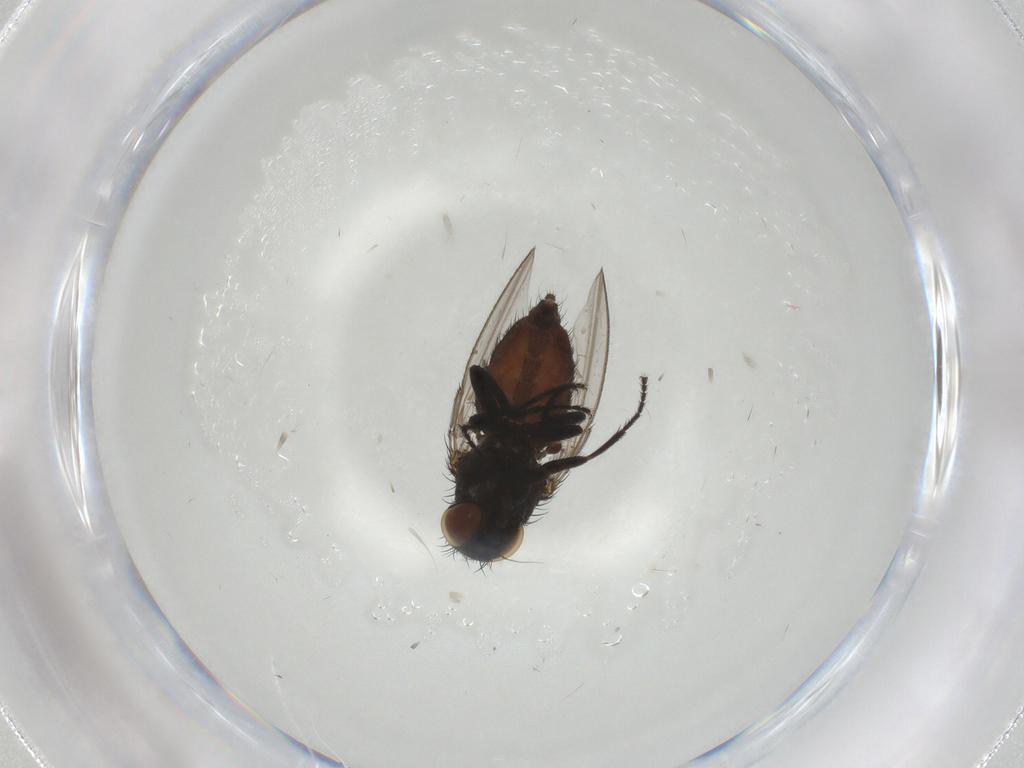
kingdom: Animalia
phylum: Arthropoda
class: Insecta
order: Diptera
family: Milichiidae
